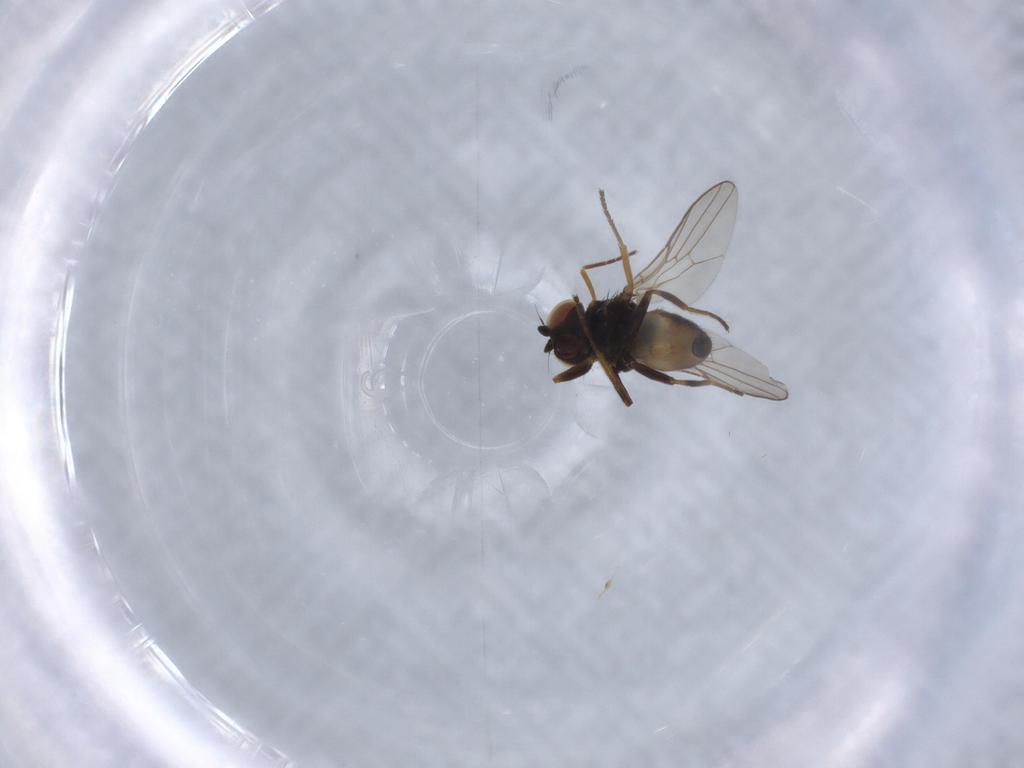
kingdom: Animalia
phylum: Arthropoda
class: Insecta
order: Diptera
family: Chloropidae
